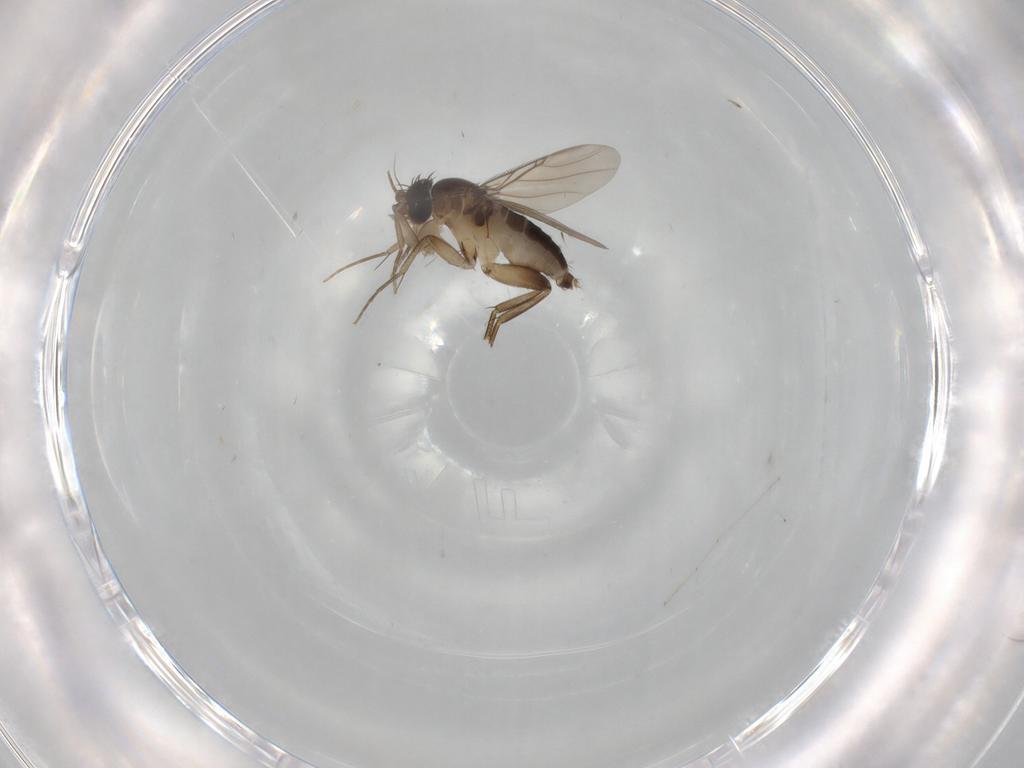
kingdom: Animalia
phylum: Arthropoda
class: Insecta
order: Diptera
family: Phoridae
